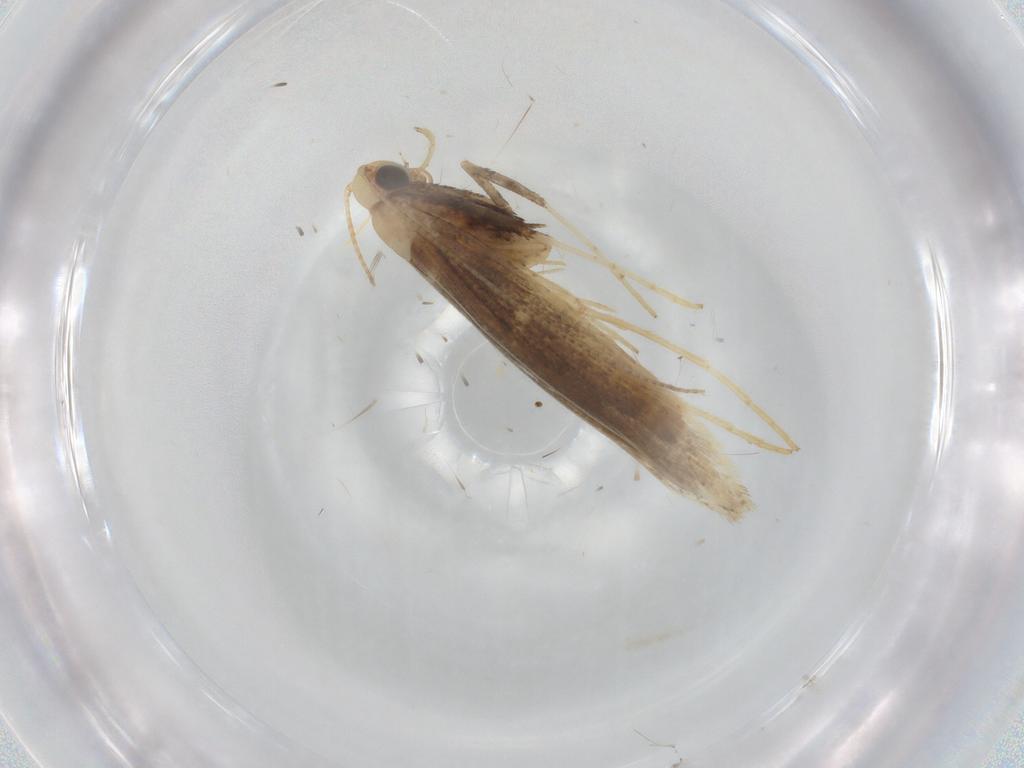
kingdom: Animalia
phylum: Arthropoda
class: Insecta
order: Lepidoptera
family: Gracillariidae
